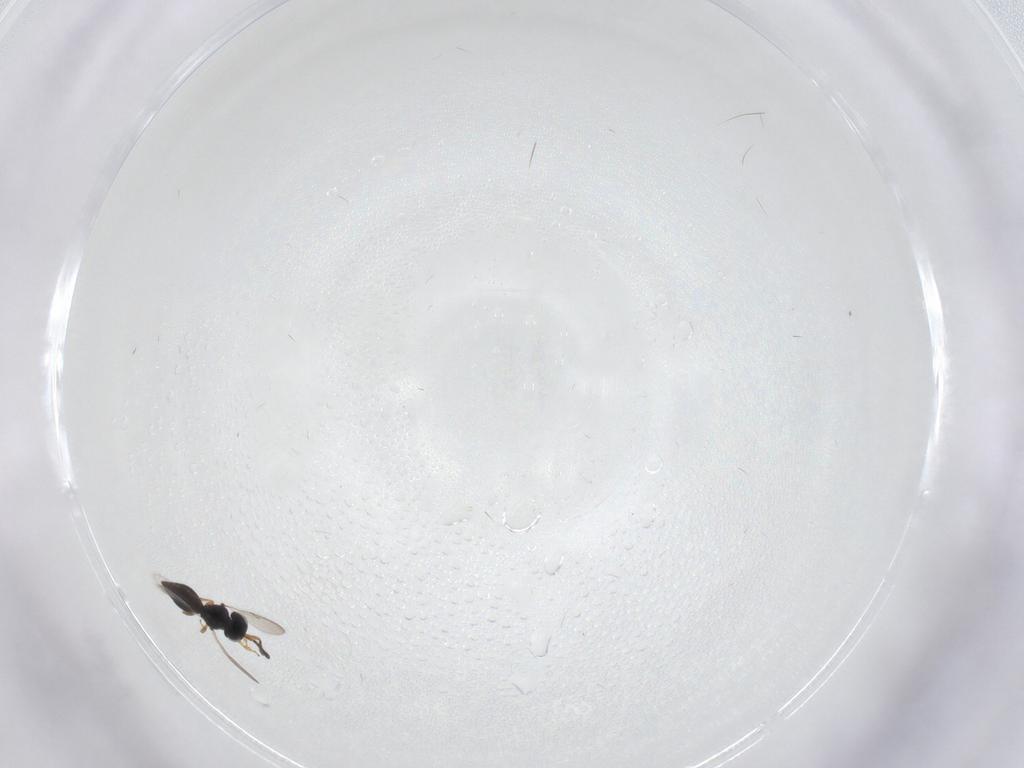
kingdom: Animalia
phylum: Arthropoda
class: Insecta
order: Hymenoptera
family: Scelionidae
